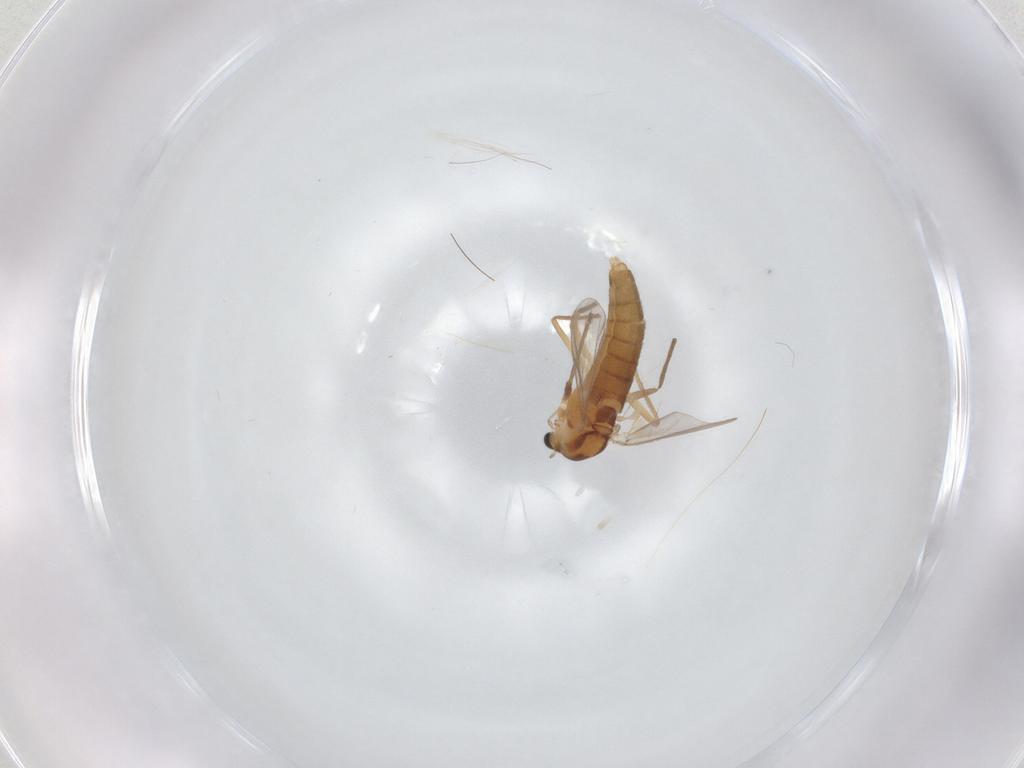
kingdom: Animalia
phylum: Arthropoda
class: Insecta
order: Diptera
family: Chironomidae
